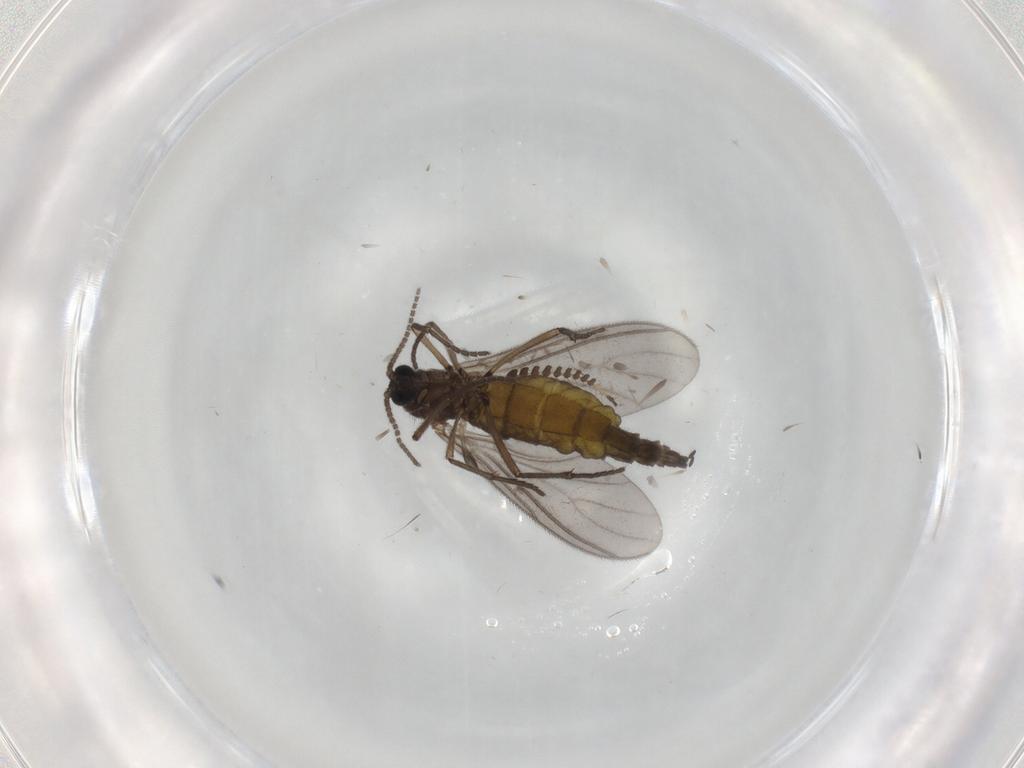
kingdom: Animalia
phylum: Arthropoda
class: Insecta
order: Diptera
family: Sciaridae
